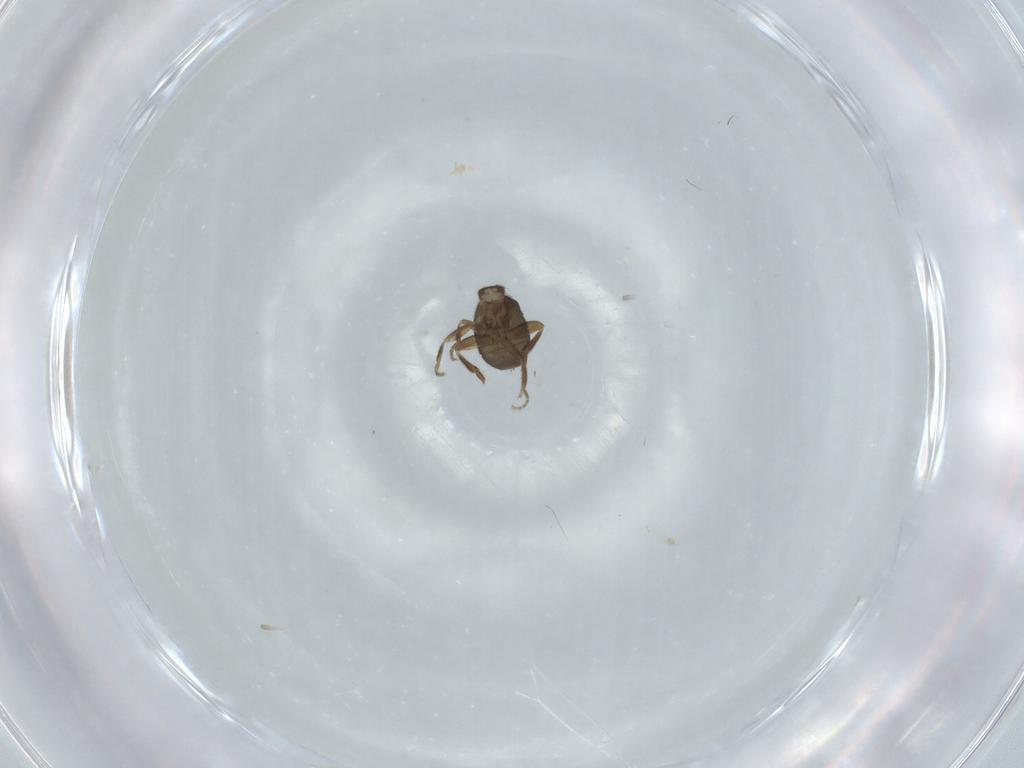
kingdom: Animalia
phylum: Arthropoda
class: Insecta
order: Diptera
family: Phoridae
